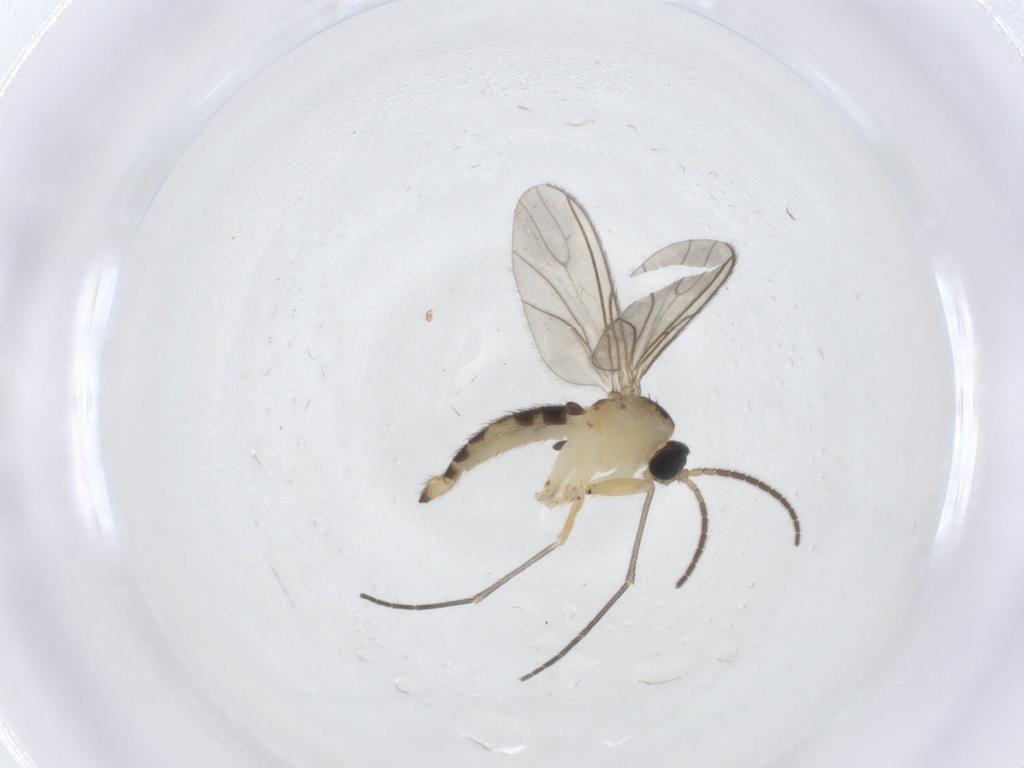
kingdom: Animalia
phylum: Arthropoda
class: Insecta
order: Diptera
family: Sciaridae
